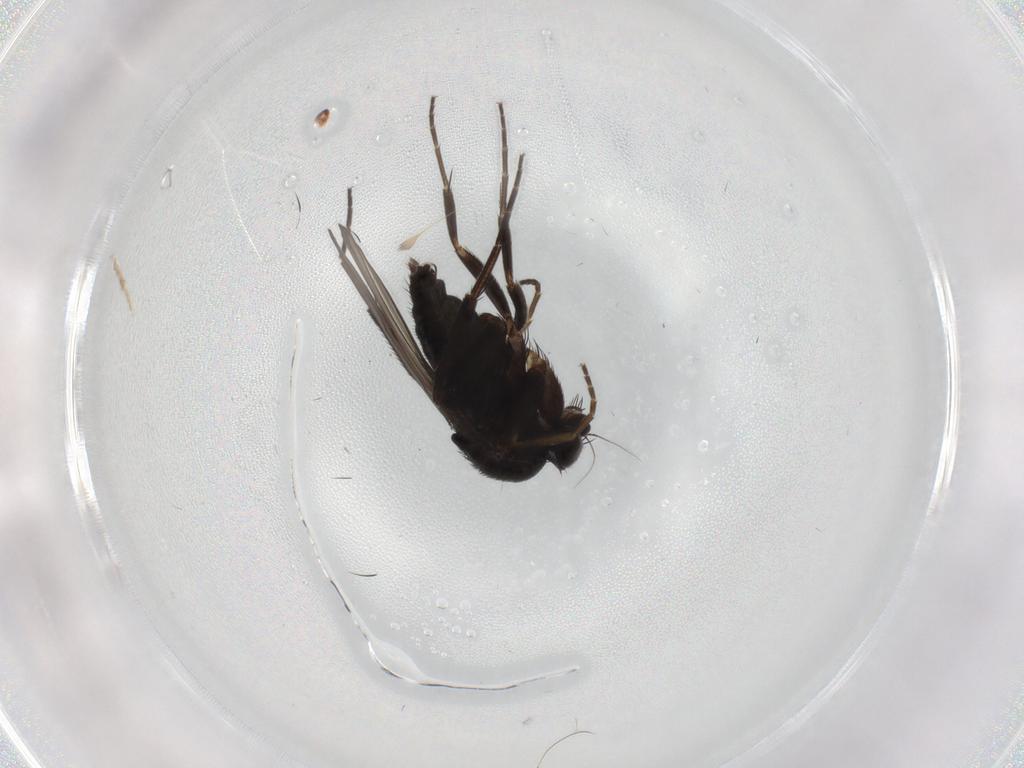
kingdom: Animalia
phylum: Arthropoda
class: Insecta
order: Diptera
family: Phoridae
